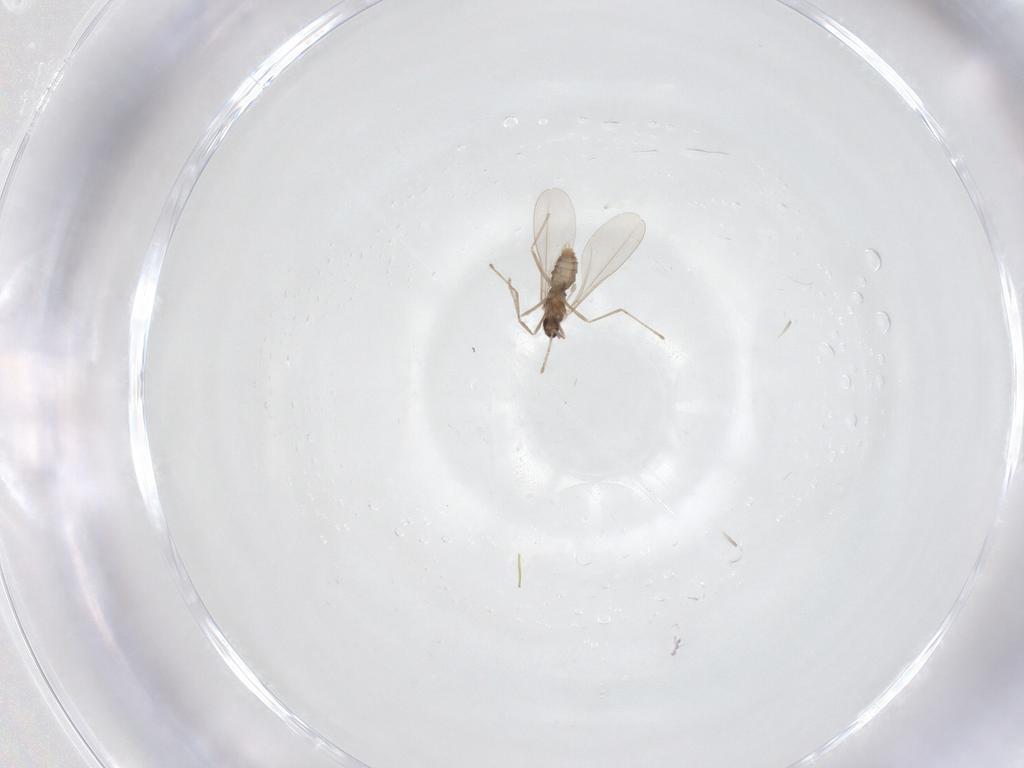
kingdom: Animalia
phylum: Arthropoda
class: Insecta
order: Diptera
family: Cecidomyiidae
